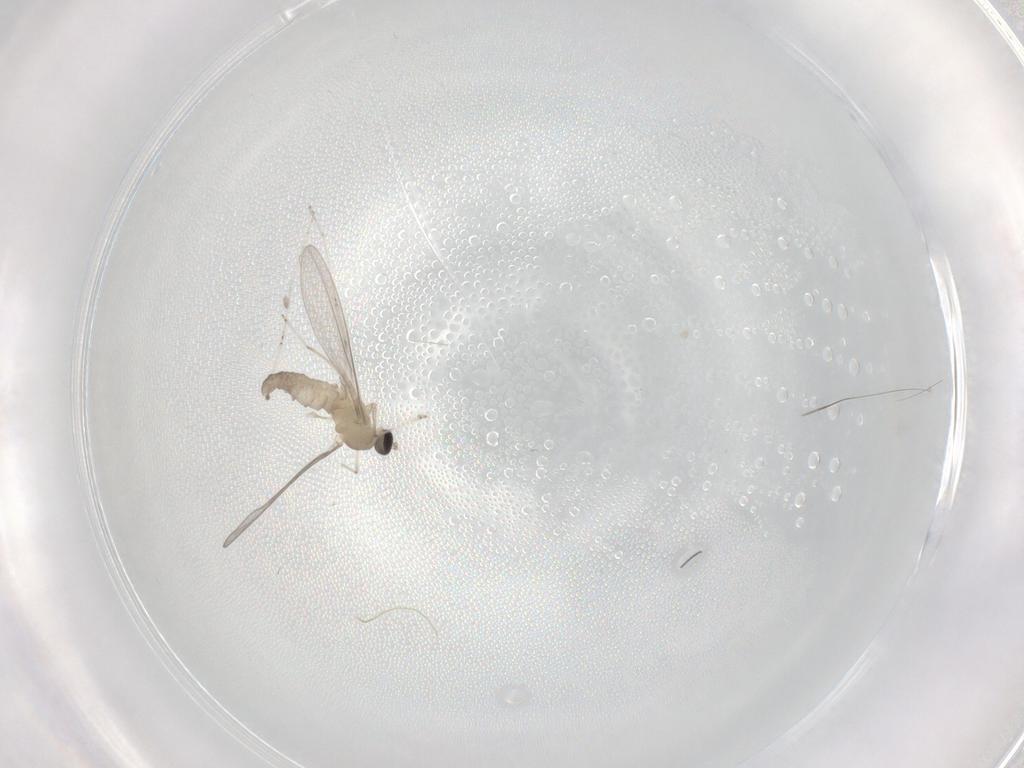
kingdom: Animalia
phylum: Arthropoda
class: Insecta
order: Diptera
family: Cecidomyiidae
